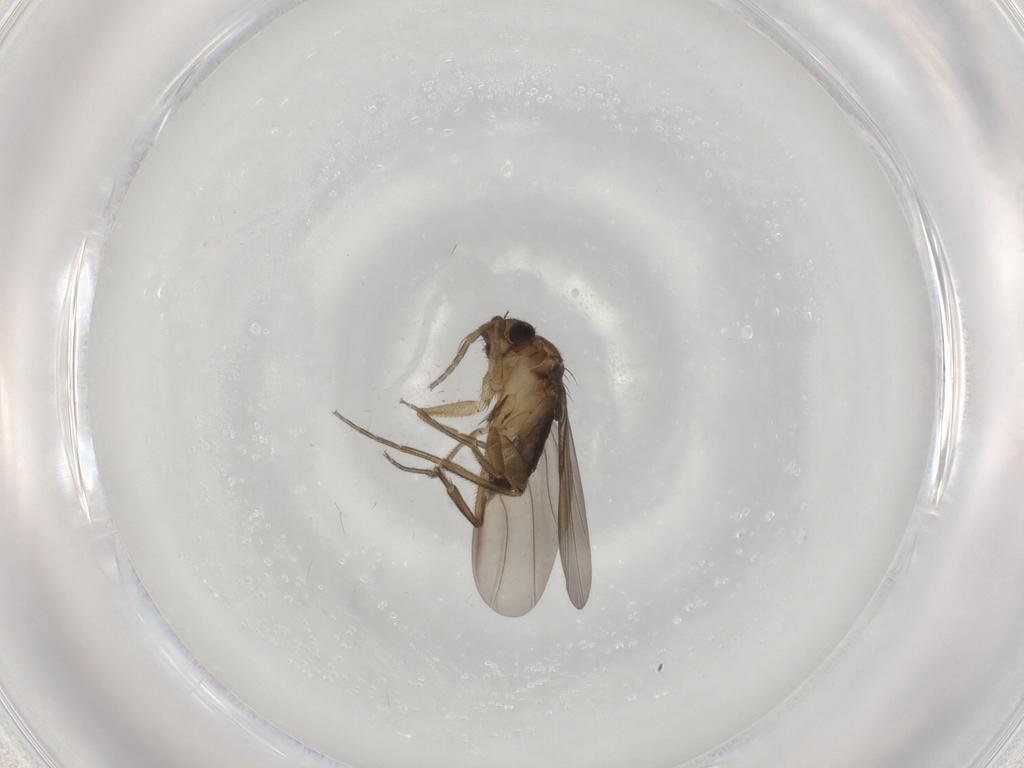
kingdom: Animalia
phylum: Arthropoda
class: Insecta
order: Diptera
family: Phoridae
